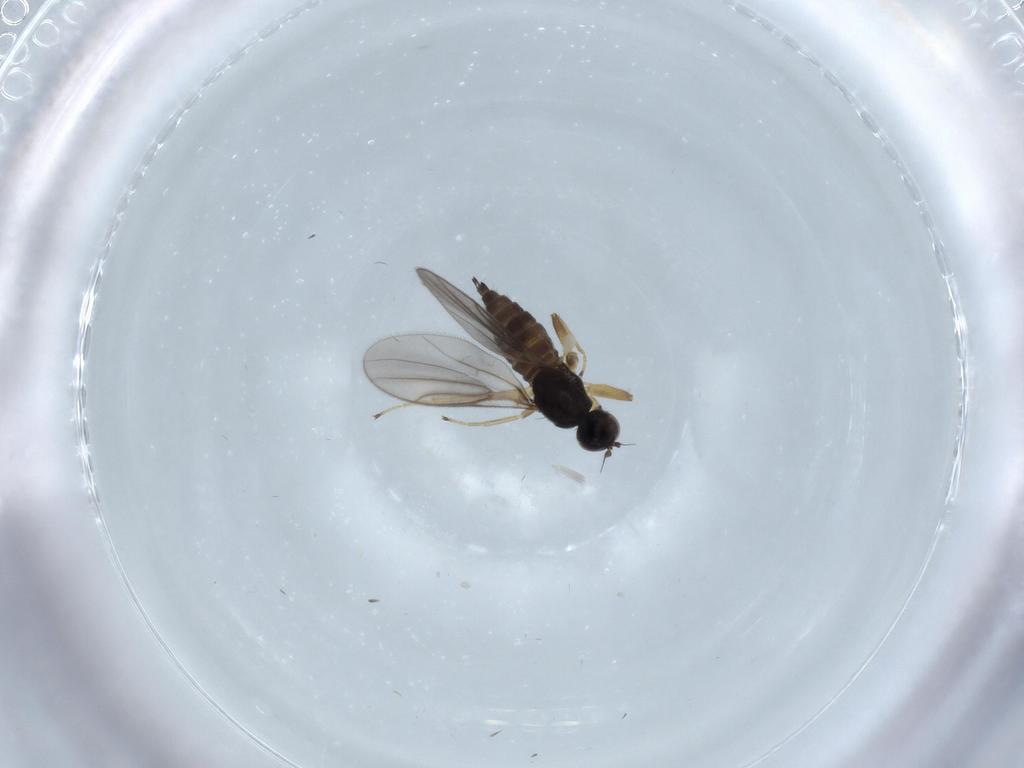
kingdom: Animalia
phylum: Arthropoda
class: Insecta
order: Diptera
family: Hybotidae
